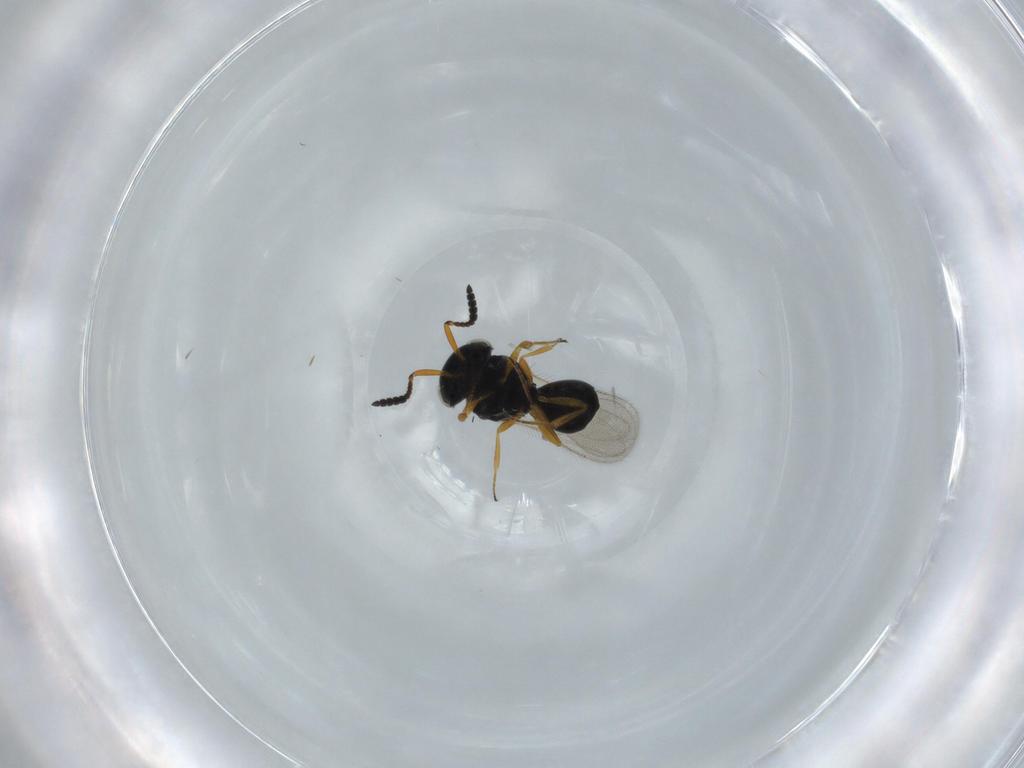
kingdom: Animalia
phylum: Arthropoda
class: Insecta
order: Hymenoptera
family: Scelionidae
